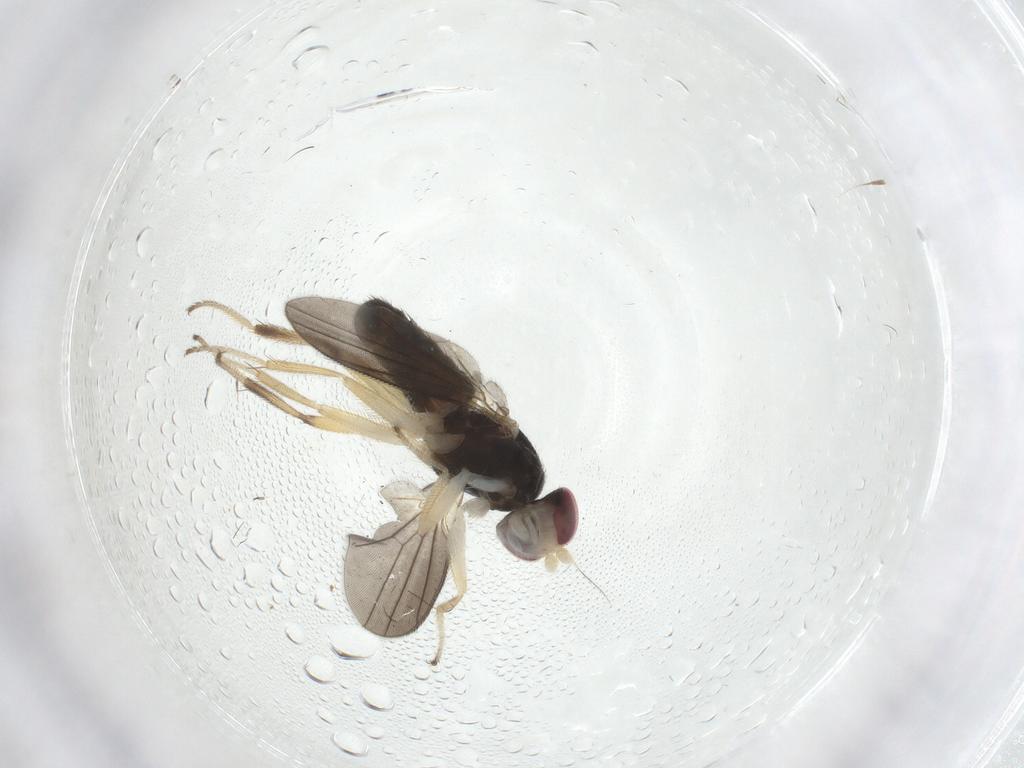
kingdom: Animalia
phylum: Arthropoda
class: Insecta
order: Diptera
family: Clusiidae
